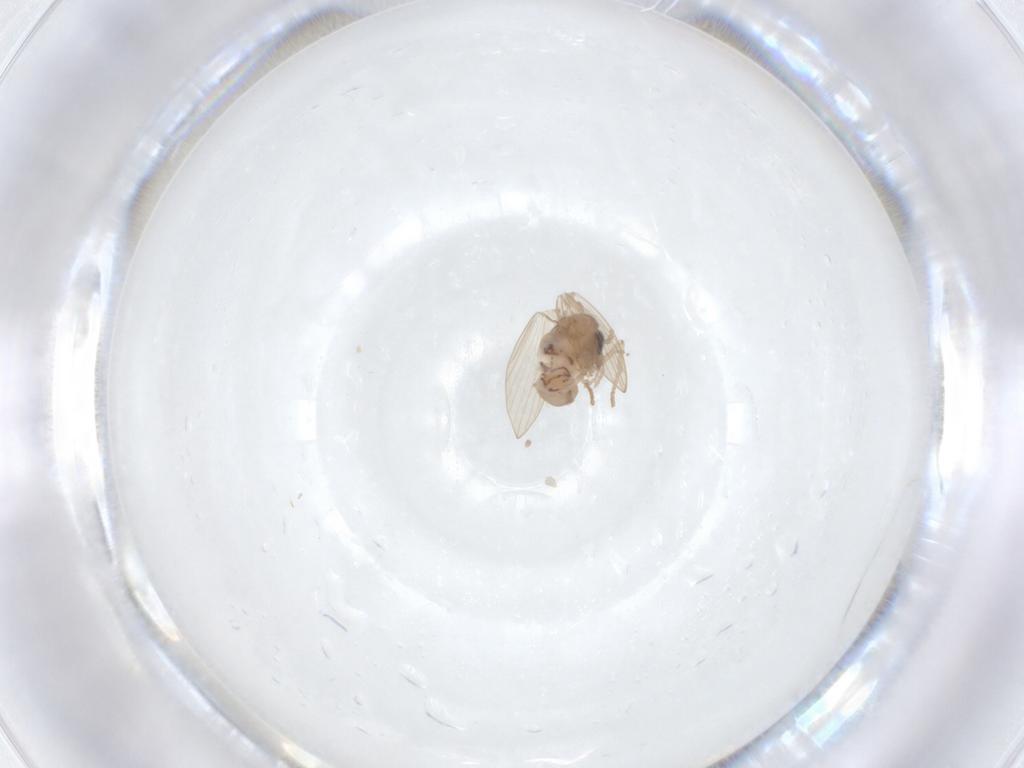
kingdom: Animalia
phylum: Arthropoda
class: Insecta
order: Diptera
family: Psychodidae
